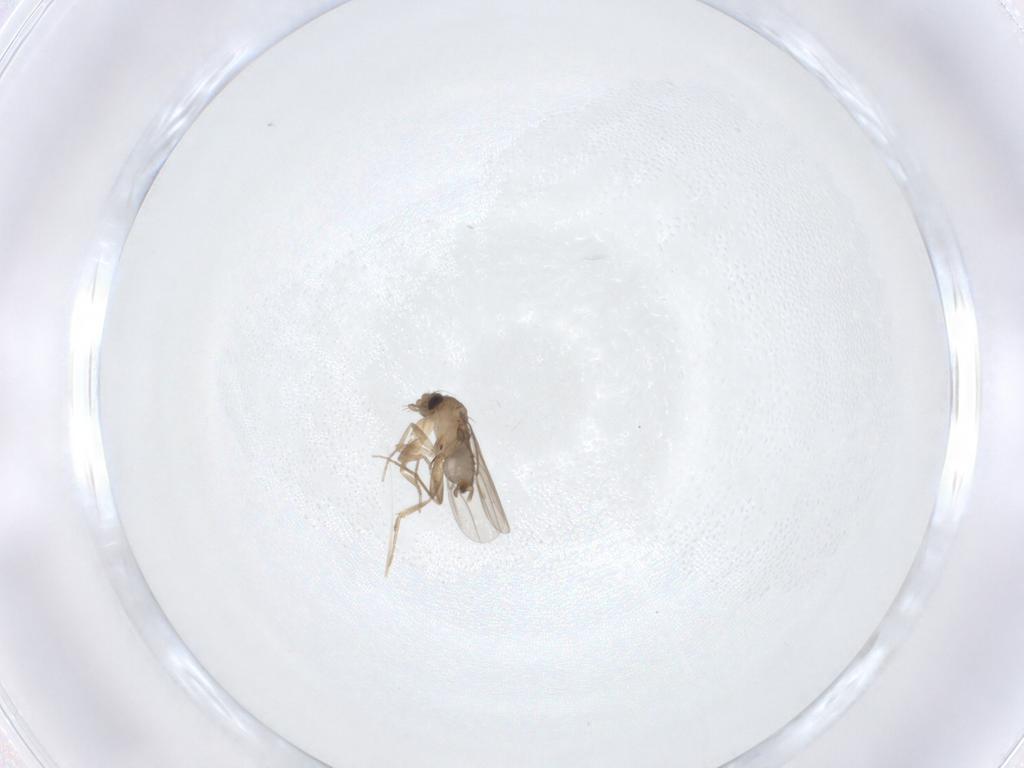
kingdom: Animalia
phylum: Arthropoda
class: Insecta
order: Diptera
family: Phoridae
